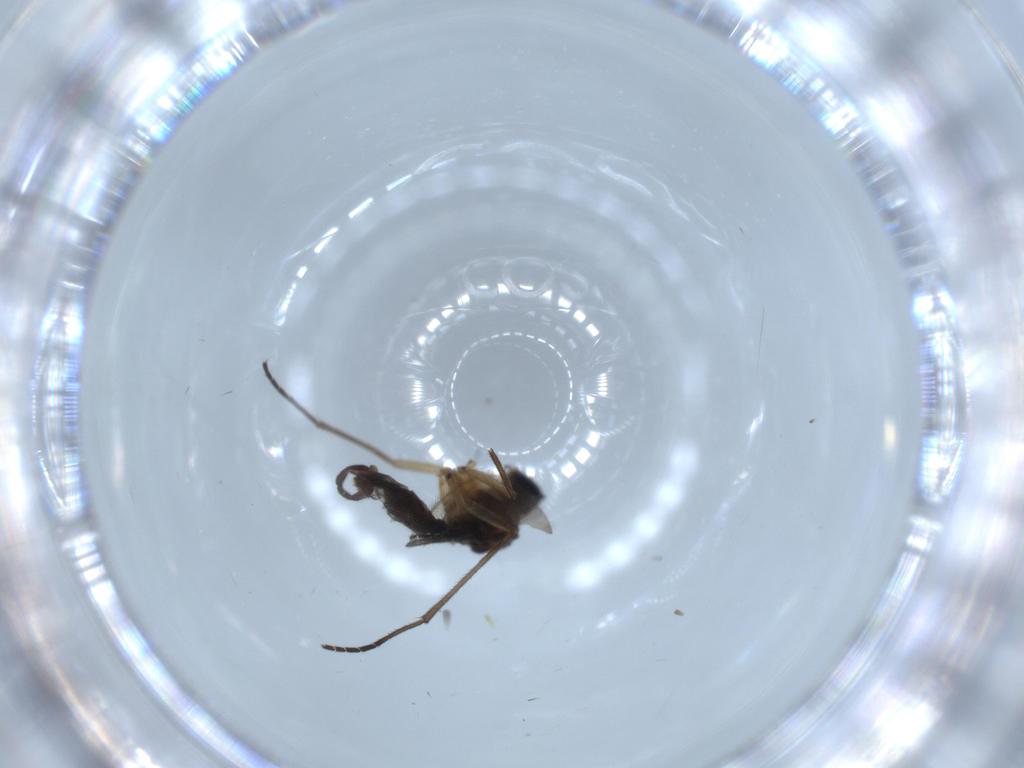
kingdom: Animalia
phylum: Arthropoda
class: Insecta
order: Diptera
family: Sciaridae
